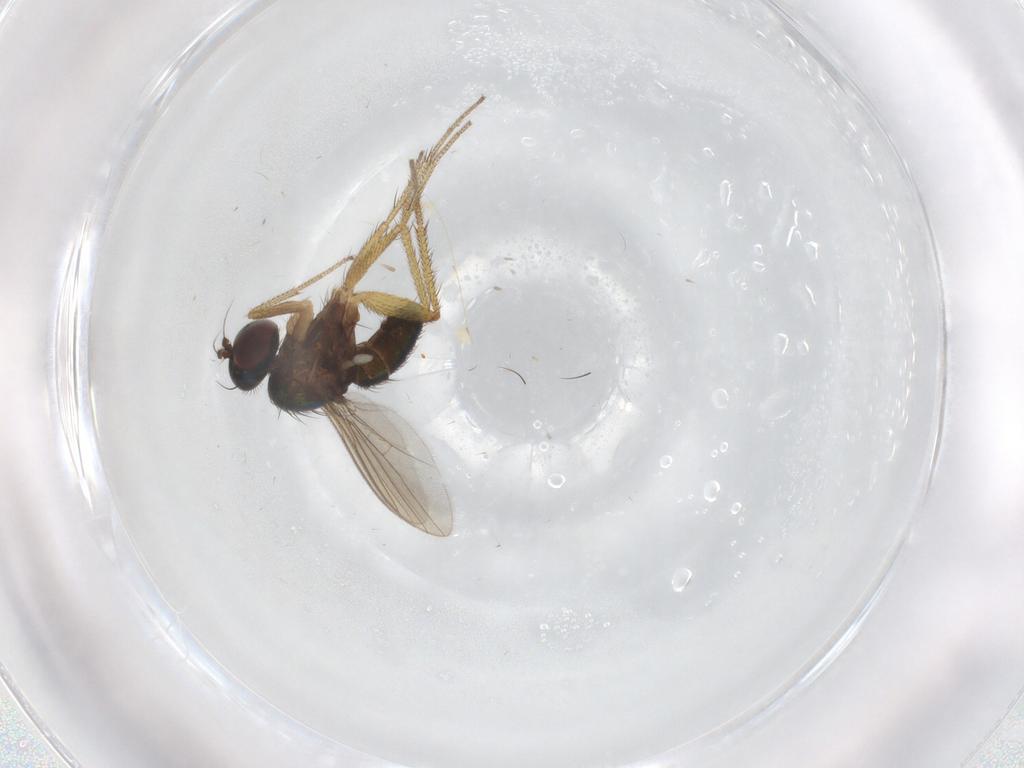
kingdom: Animalia
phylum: Arthropoda
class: Insecta
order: Diptera
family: Dolichopodidae
